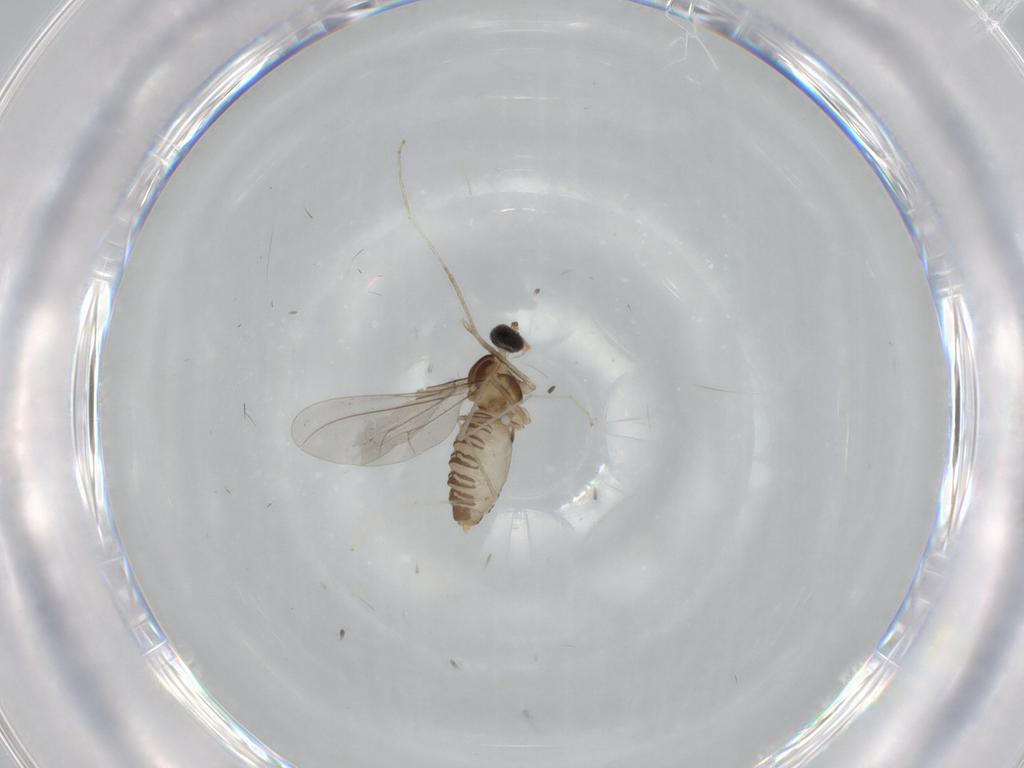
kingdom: Animalia
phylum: Arthropoda
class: Insecta
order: Diptera
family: Cecidomyiidae
